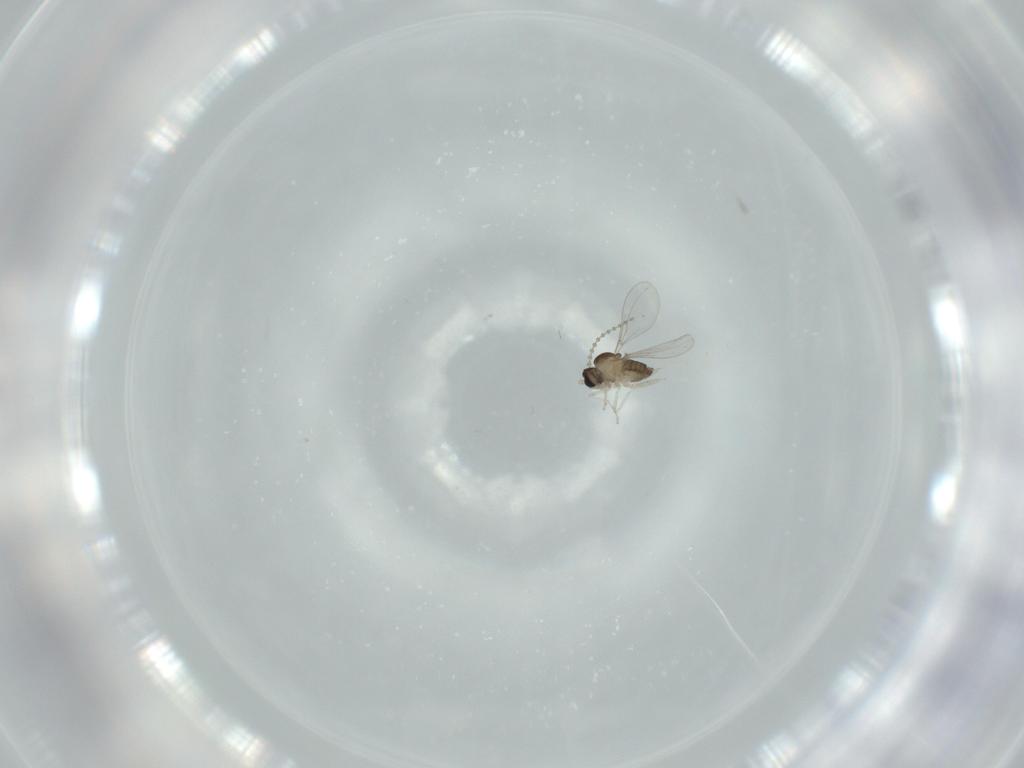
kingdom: Animalia
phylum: Arthropoda
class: Insecta
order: Diptera
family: Cecidomyiidae
